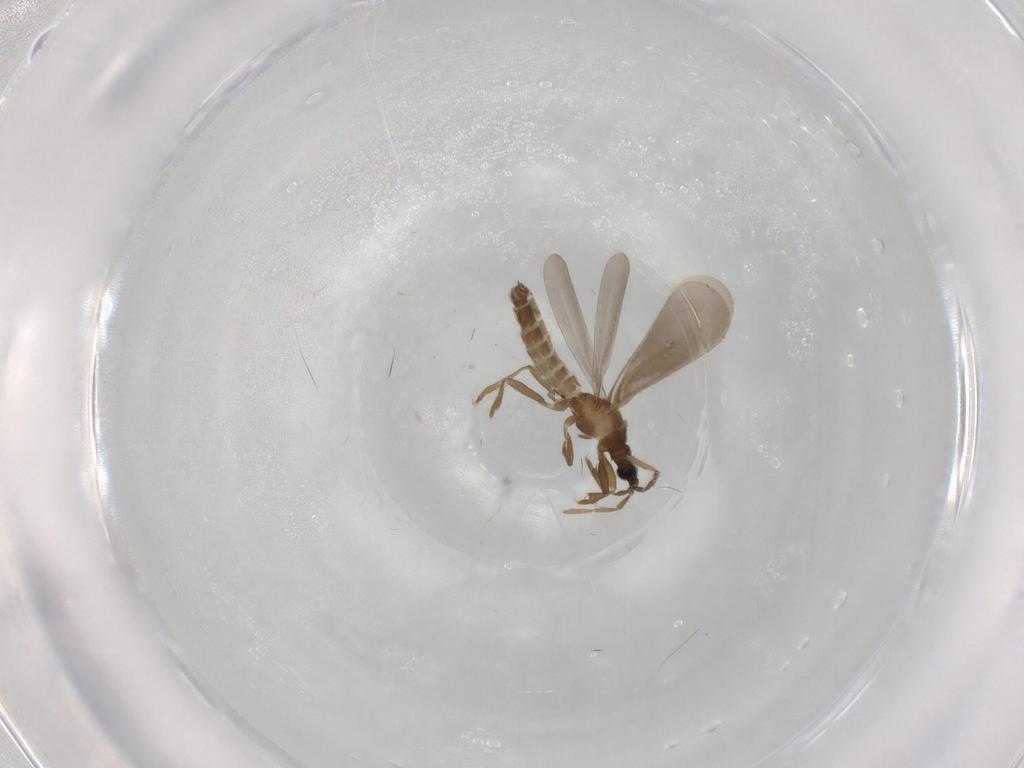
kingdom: Animalia
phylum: Arthropoda
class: Insecta
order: Hemiptera
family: Enicocephalidae
